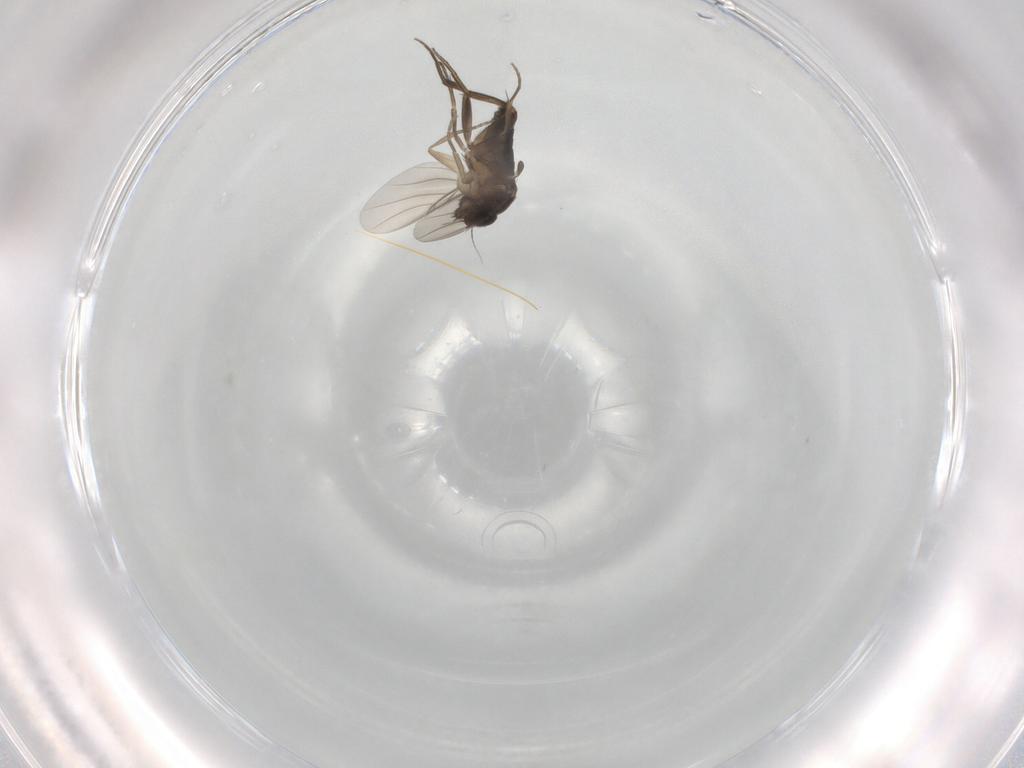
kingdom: Animalia
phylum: Arthropoda
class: Insecta
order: Diptera
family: Phoridae
